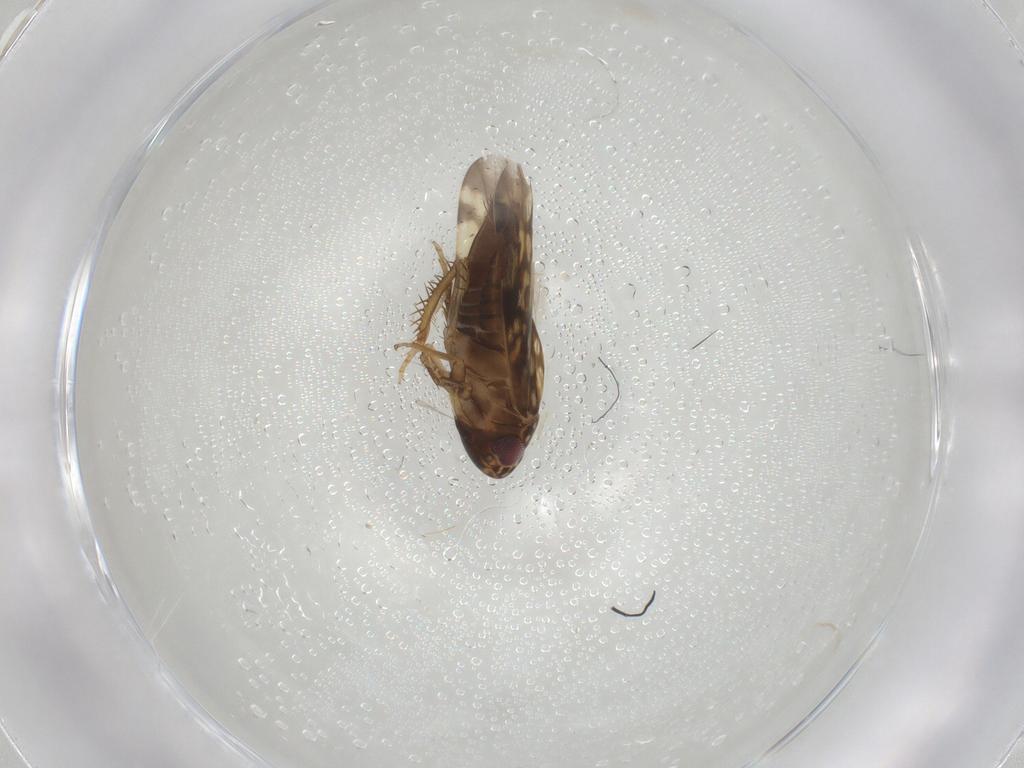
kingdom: Animalia
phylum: Arthropoda
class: Insecta
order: Hemiptera
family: Cicadellidae
